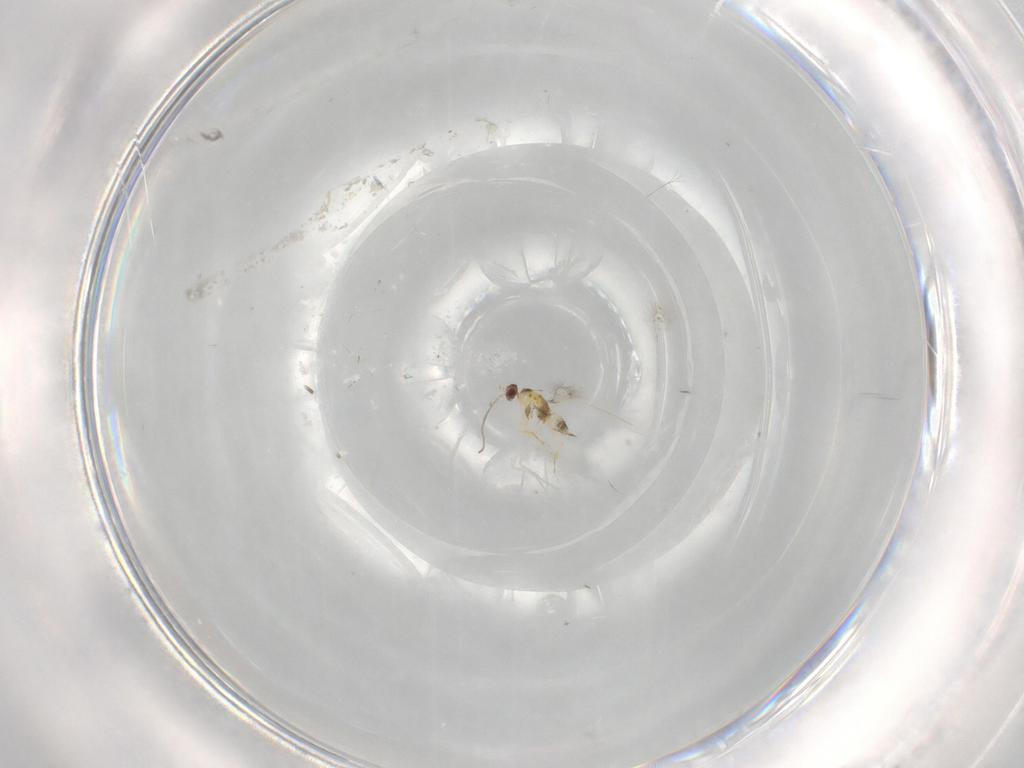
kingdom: Animalia
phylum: Arthropoda
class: Insecta
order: Hymenoptera
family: Mymaridae
